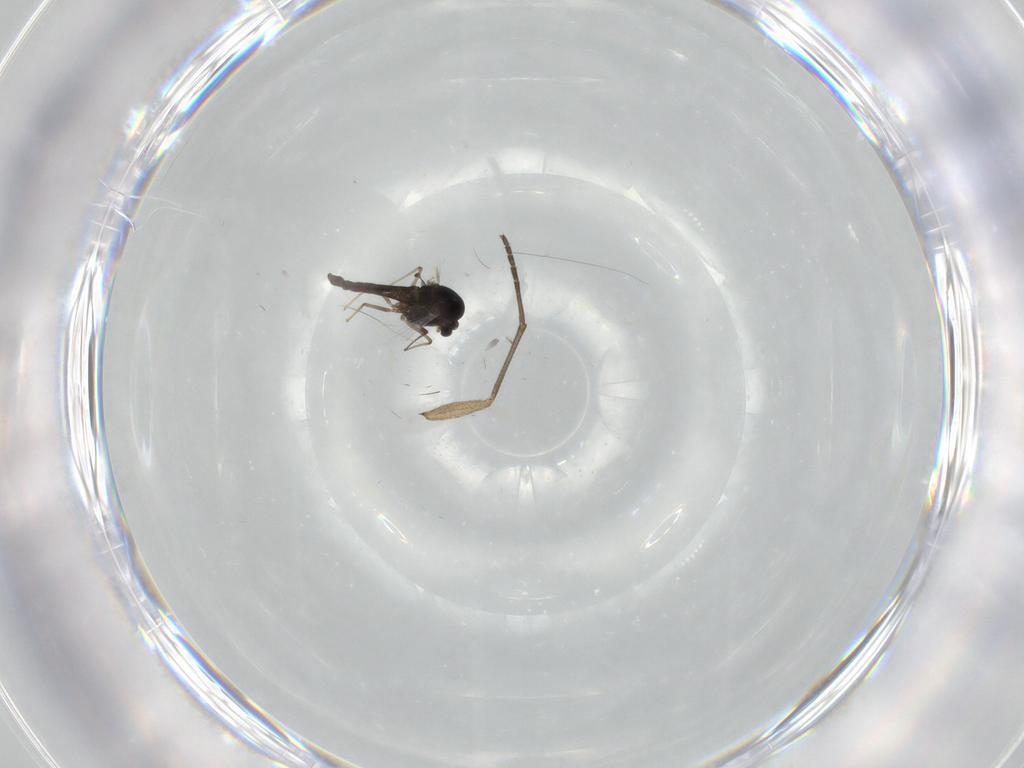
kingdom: Animalia
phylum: Arthropoda
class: Insecta
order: Diptera
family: Chironomidae
